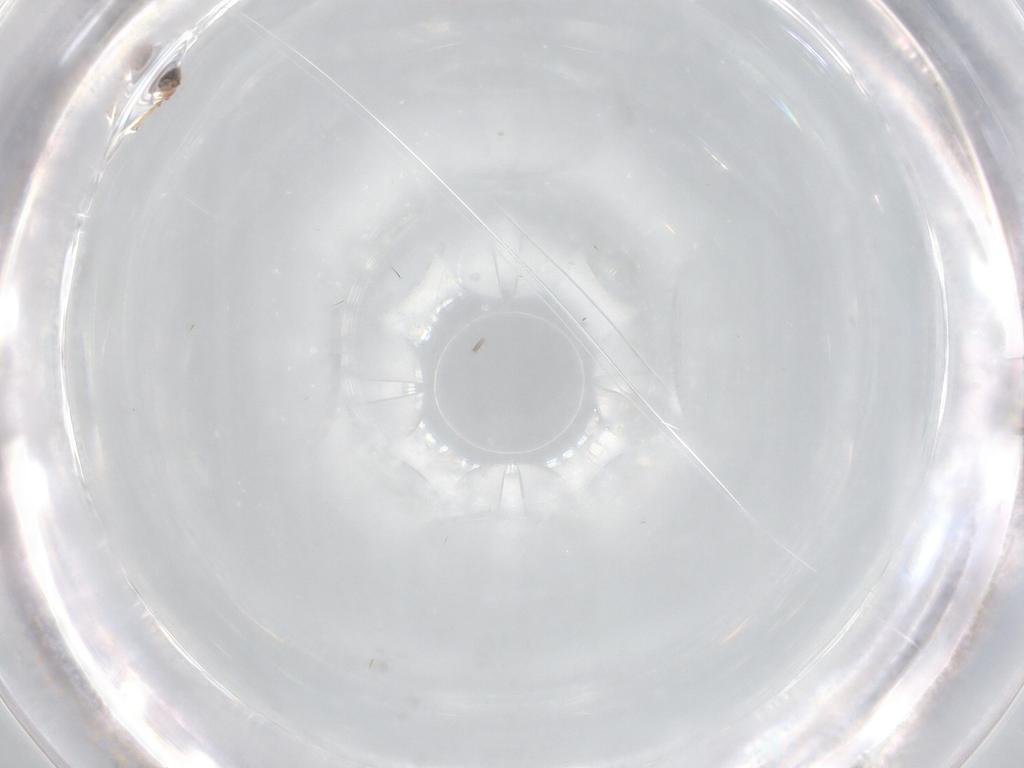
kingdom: Animalia
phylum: Arthropoda
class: Insecta
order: Lepidoptera
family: Crambidae
